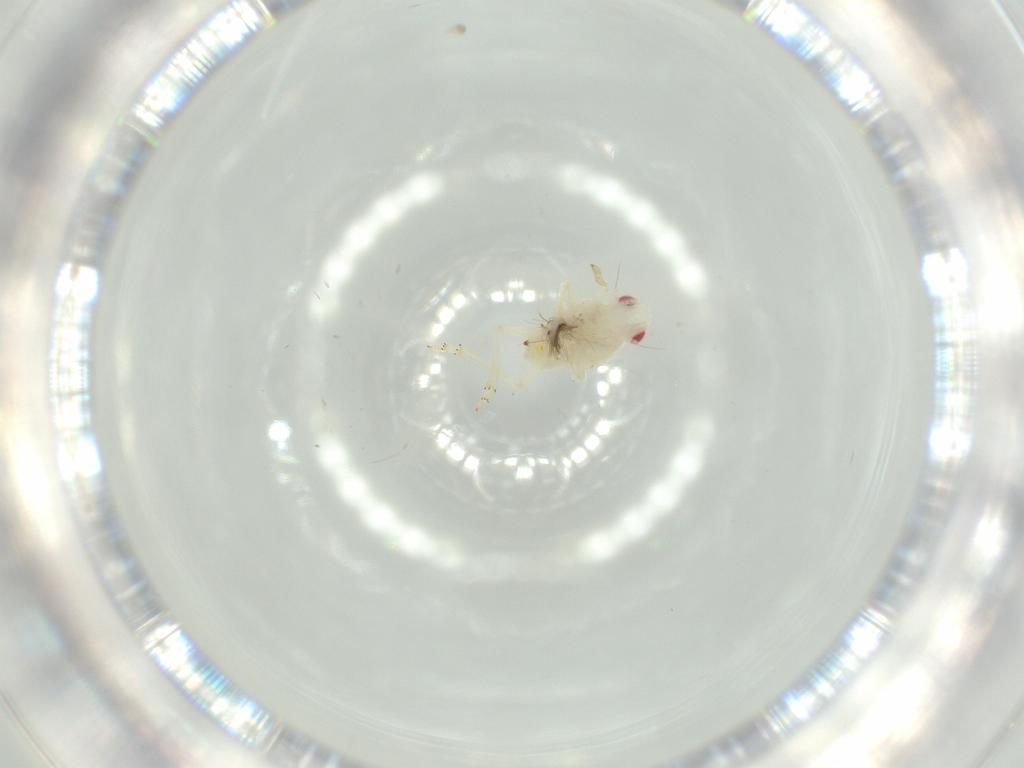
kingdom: Animalia
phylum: Arthropoda
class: Insecta
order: Hemiptera
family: Tropiduchidae
